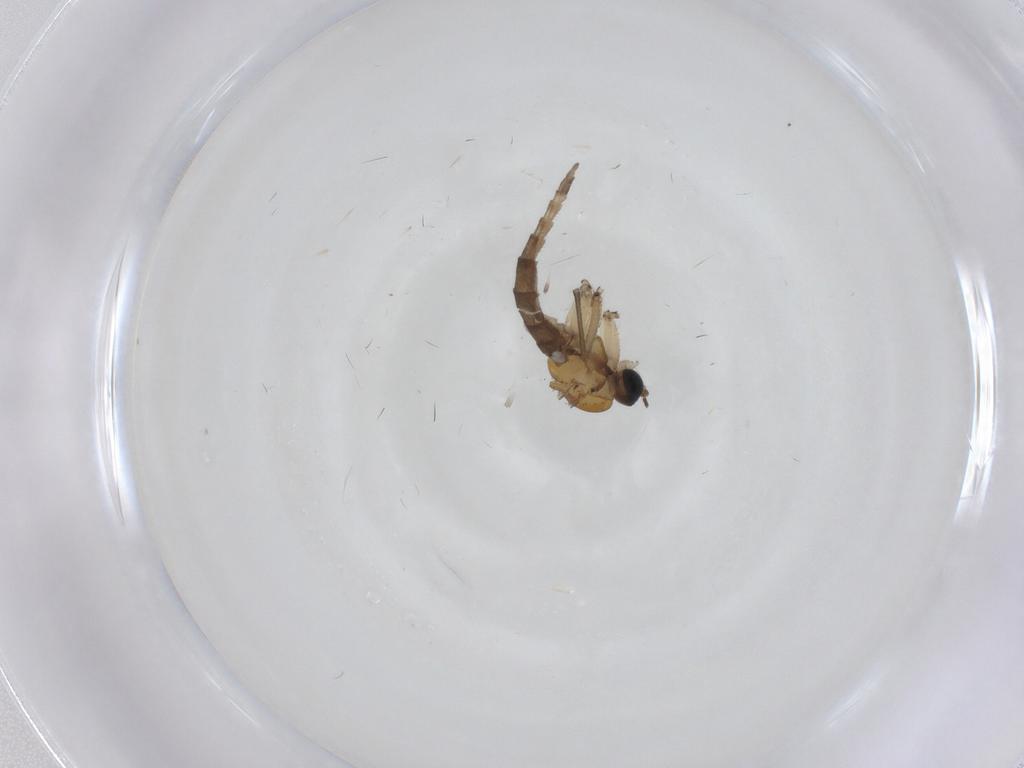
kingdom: Animalia
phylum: Arthropoda
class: Insecta
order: Diptera
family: Sciaridae
